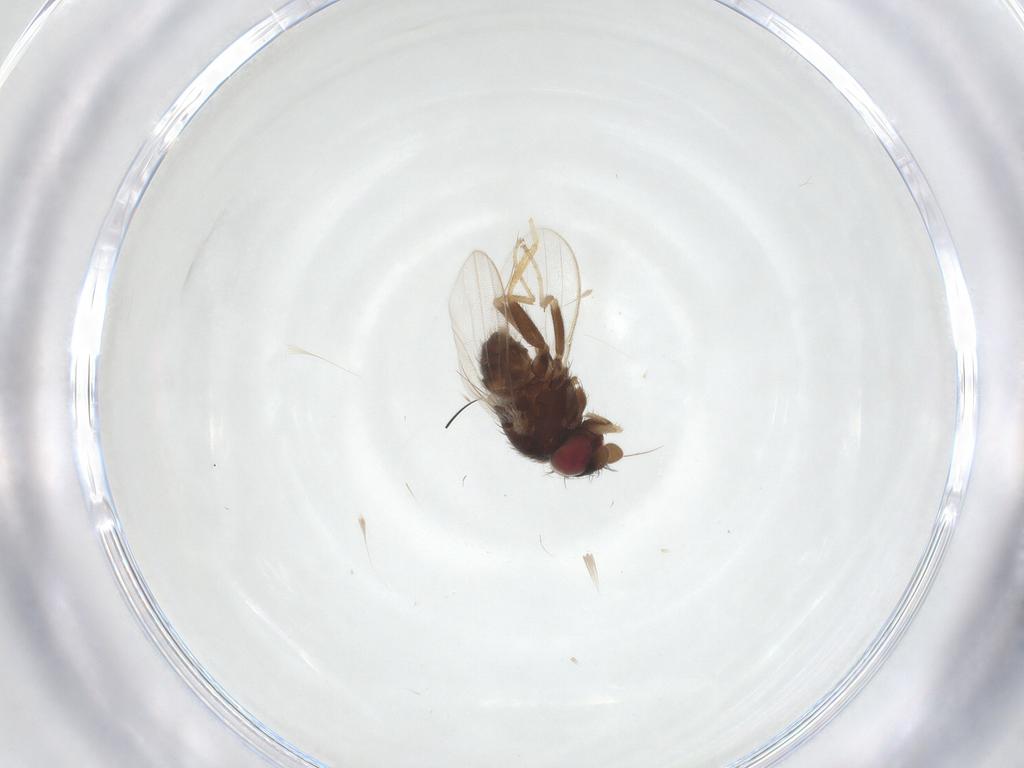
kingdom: Animalia
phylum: Arthropoda
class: Insecta
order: Diptera
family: Milichiidae
